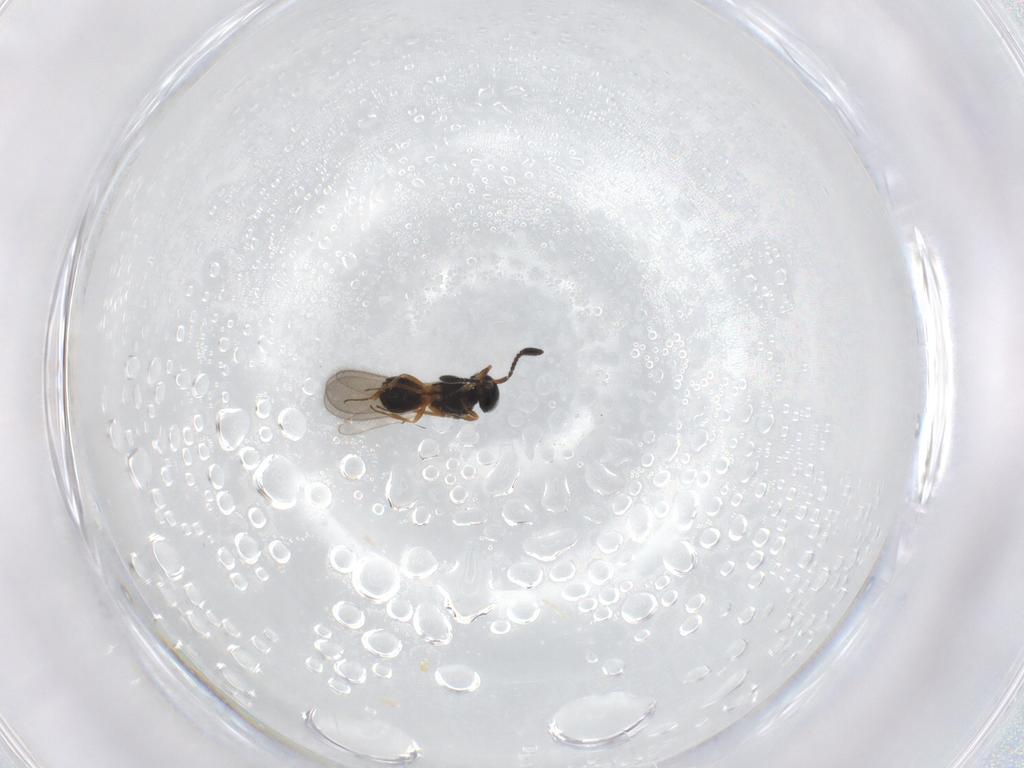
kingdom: Animalia
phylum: Arthropoda
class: Insecta
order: Hymenoptera
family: Scelionidae
